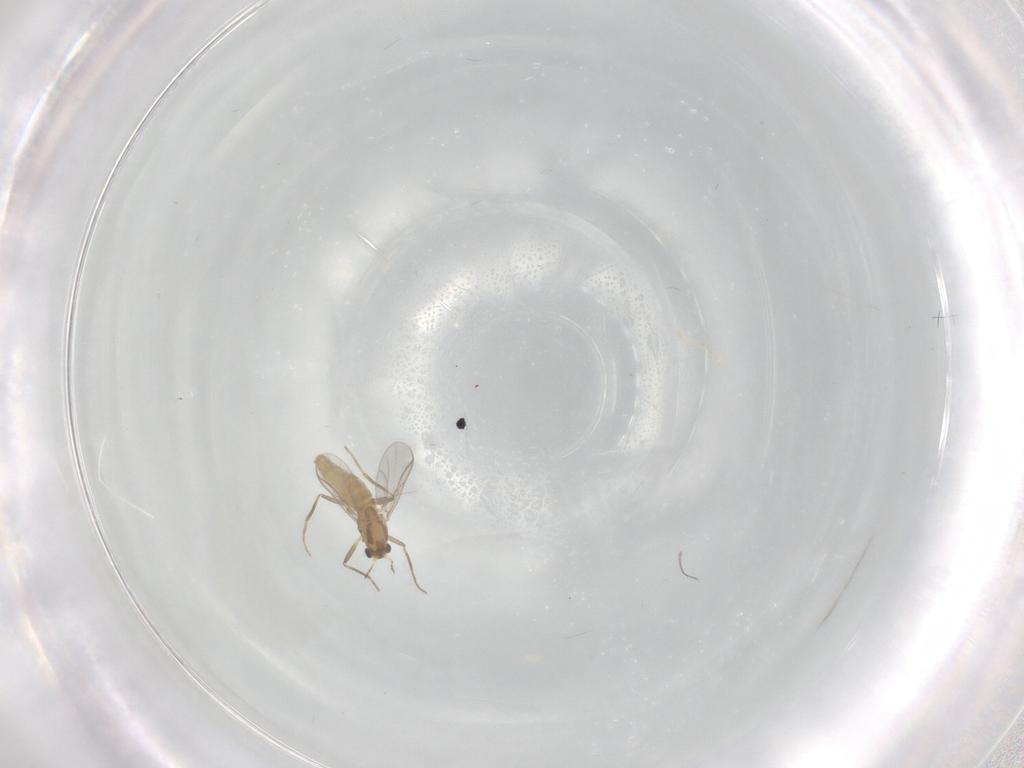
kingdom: Animalia
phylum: Arthropoda
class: Insecta
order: Diptera
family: Chironomidae
